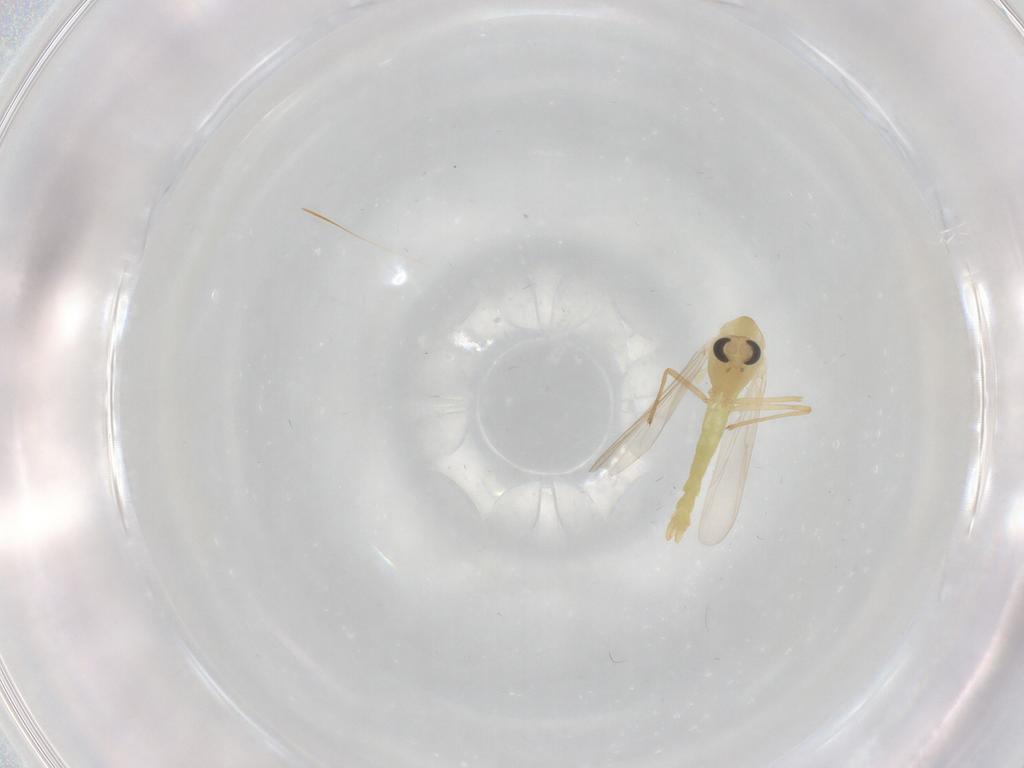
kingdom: Animalia
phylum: Arthropoda
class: Insecta
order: Diptera
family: Chironomidae
